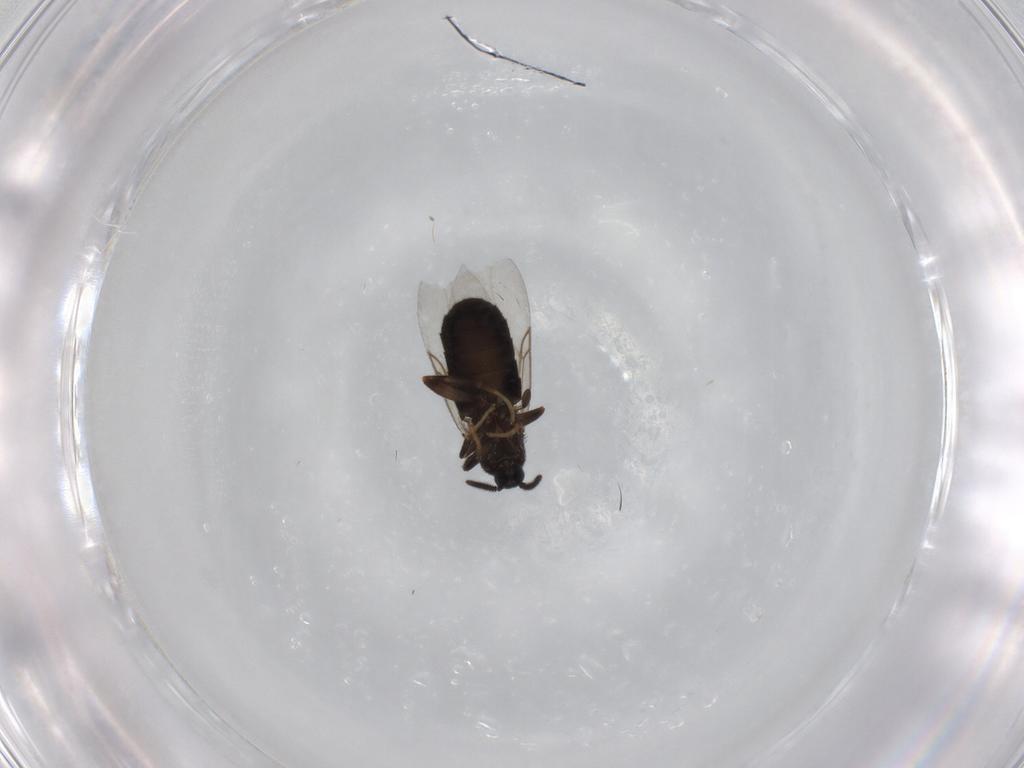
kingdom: Animalia
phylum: Arthropoda
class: Insecta
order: Diptera
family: Scatopsidae
